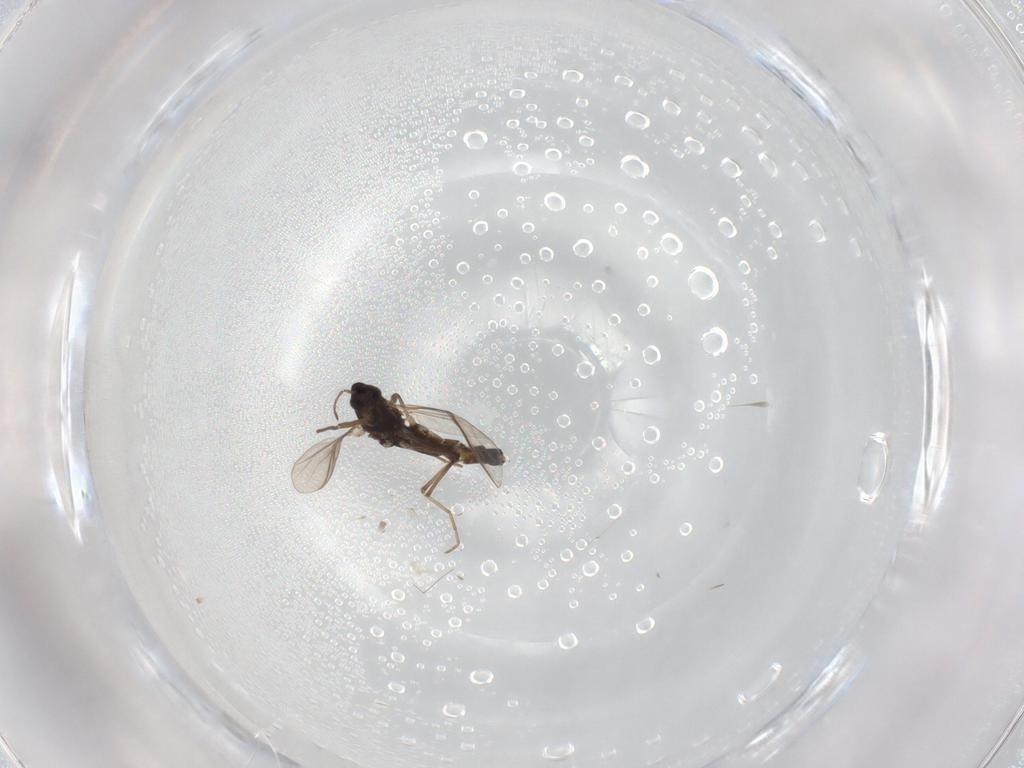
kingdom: Animalia
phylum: Arthropoda
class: Insecta
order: Diptera
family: Chironomidae
